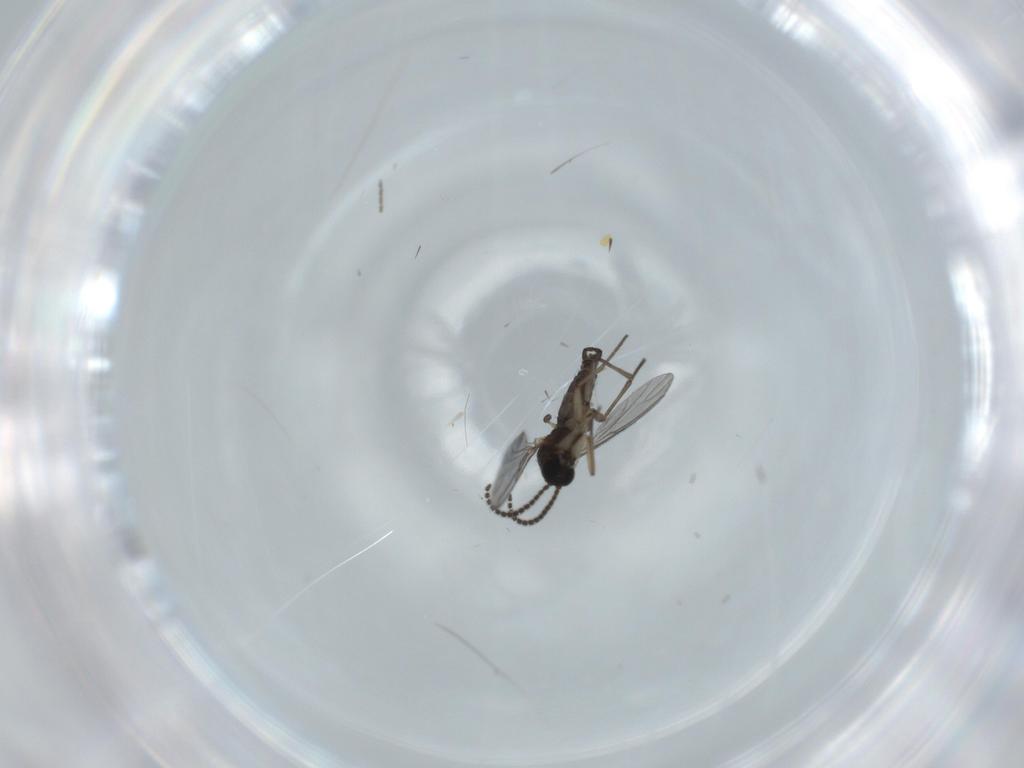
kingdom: Animalia
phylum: Arthropoda
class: Insecta
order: Diptera
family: Sciaridae
